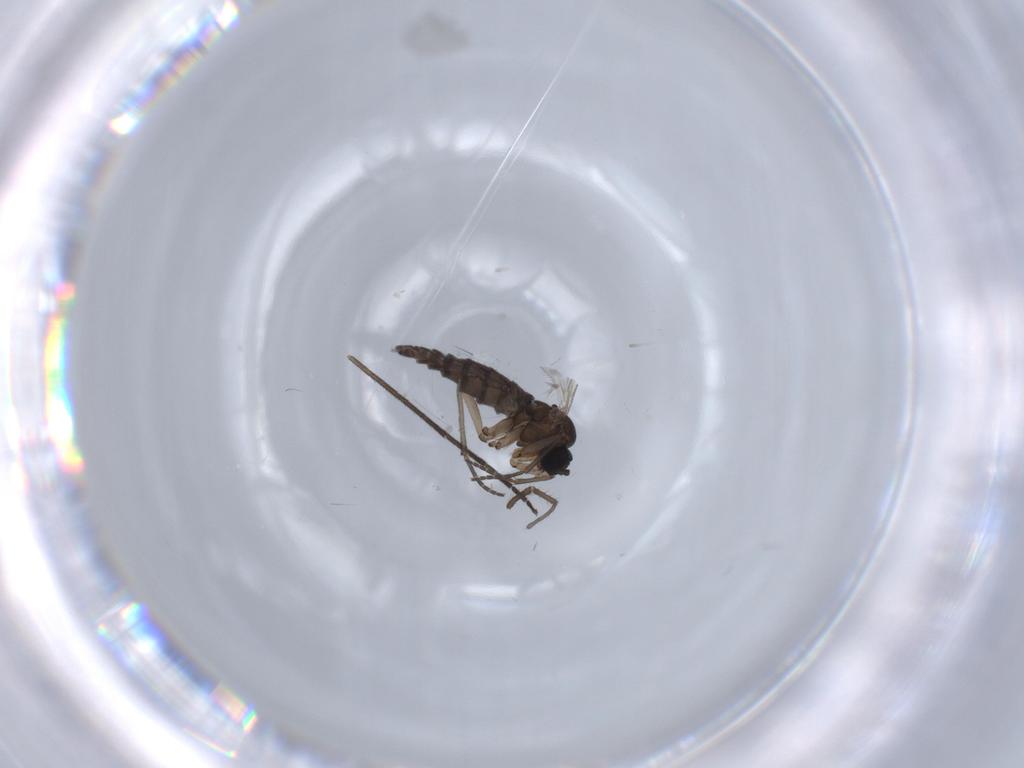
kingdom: Animalia
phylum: Arthropoda
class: Insecta
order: Diptera
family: Sciaridae
